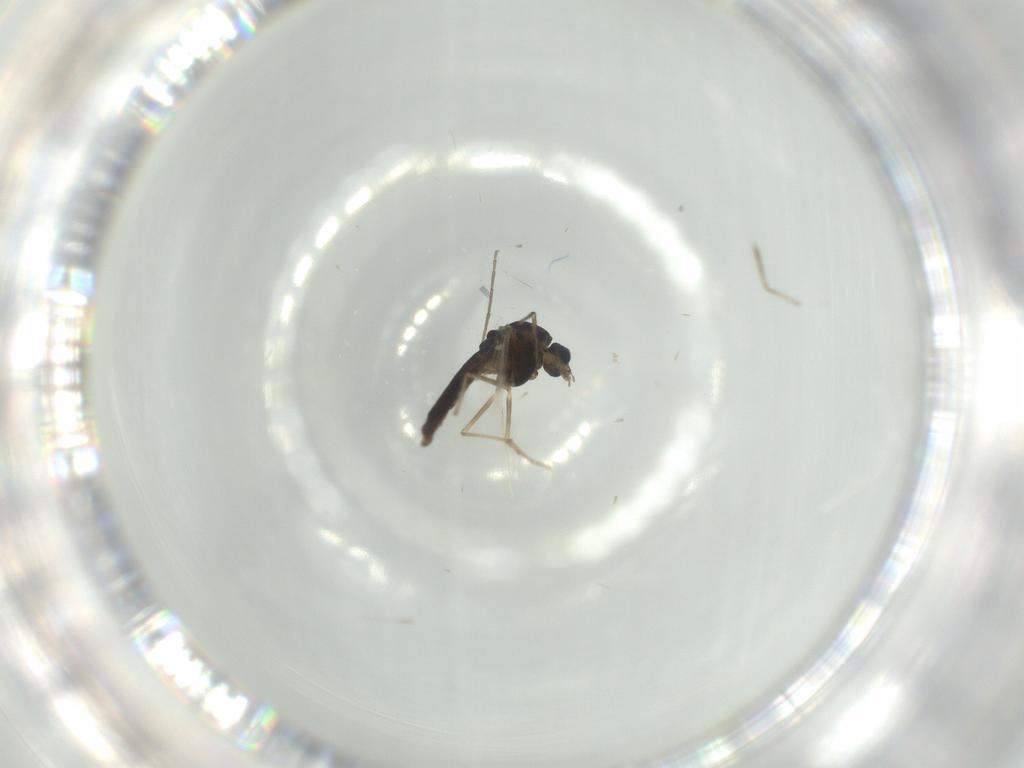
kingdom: Animalia
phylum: Arthropoda
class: Insecta
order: Diptera
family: Chironomidae
